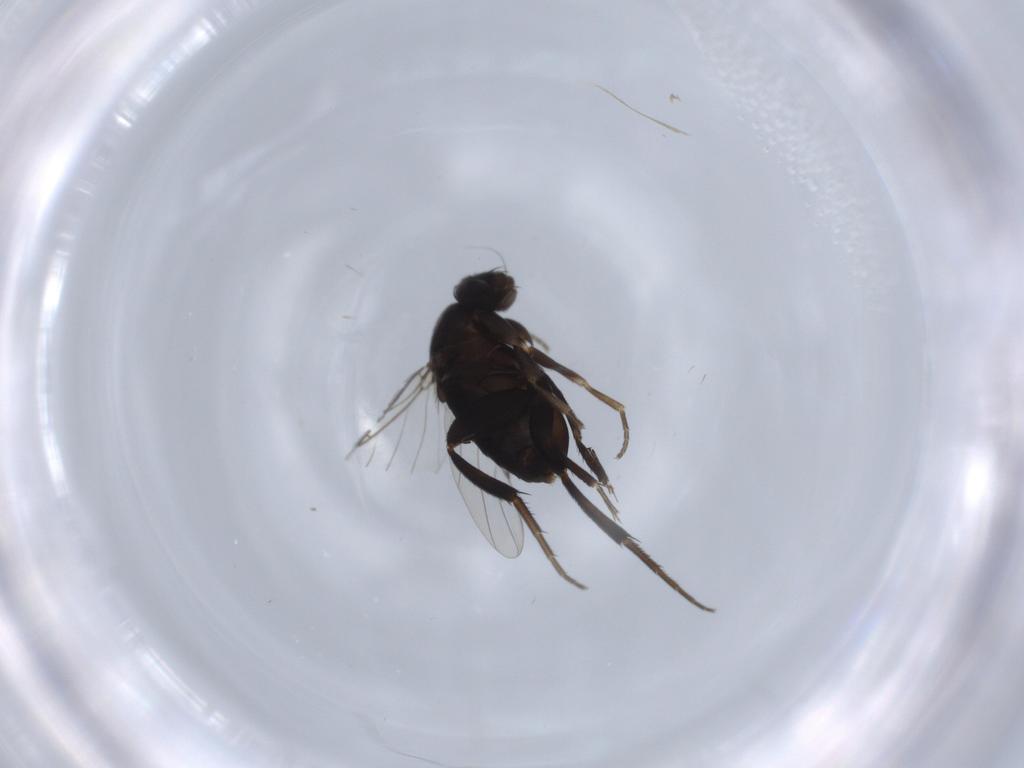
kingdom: Animalia
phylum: Arthropoda
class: Insecta
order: Diptera
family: Phoridae
